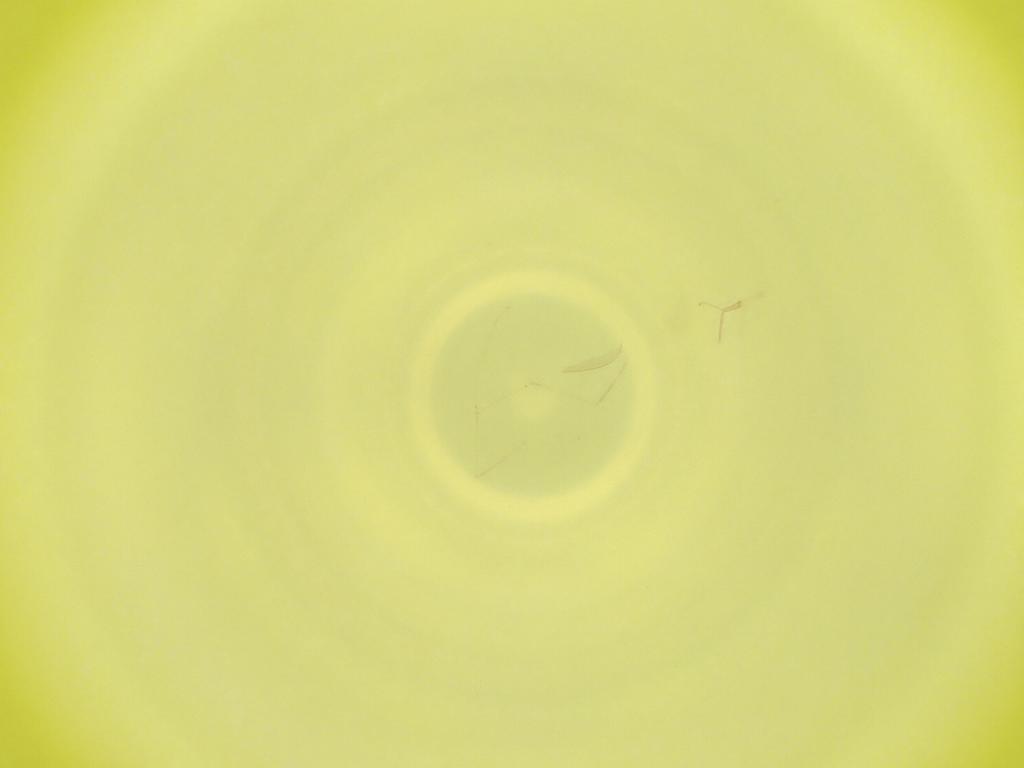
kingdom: Animalia
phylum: Arthropoda
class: Insecta
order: Diptera
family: Cecidomyiidae
